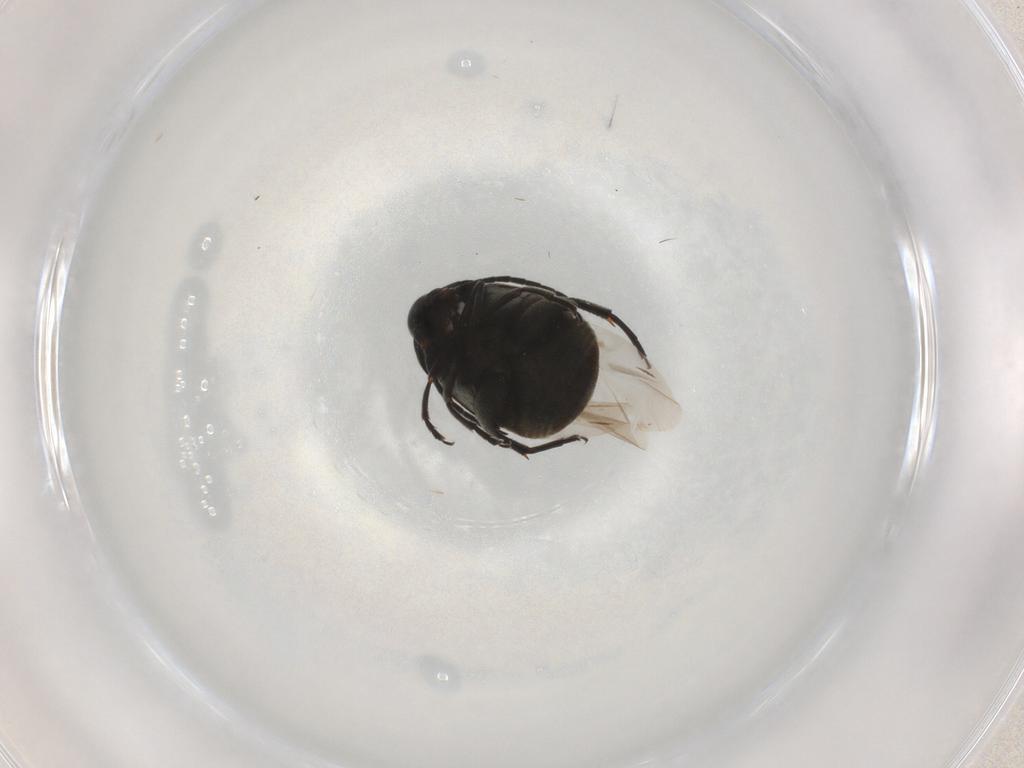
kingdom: Animalia
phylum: Arthropoda
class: Insecta
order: Coleoptera
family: Chrysomelidae
